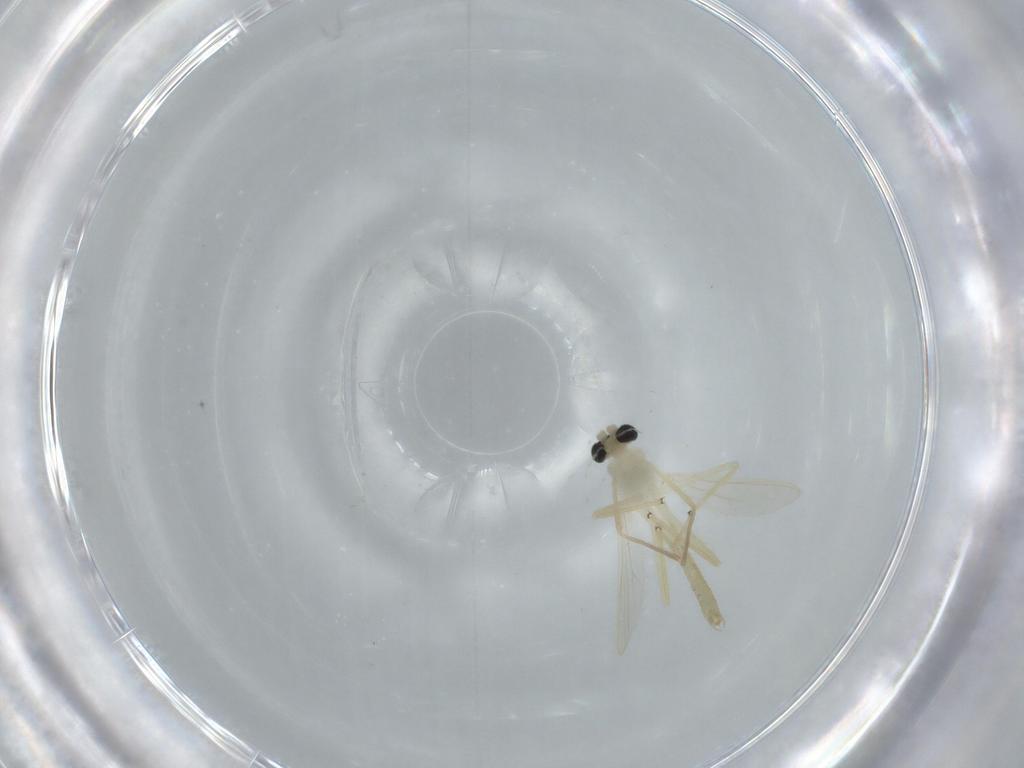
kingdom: Animalia
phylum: Arthropoda
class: Insecta
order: Diptera
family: Chironomidae
